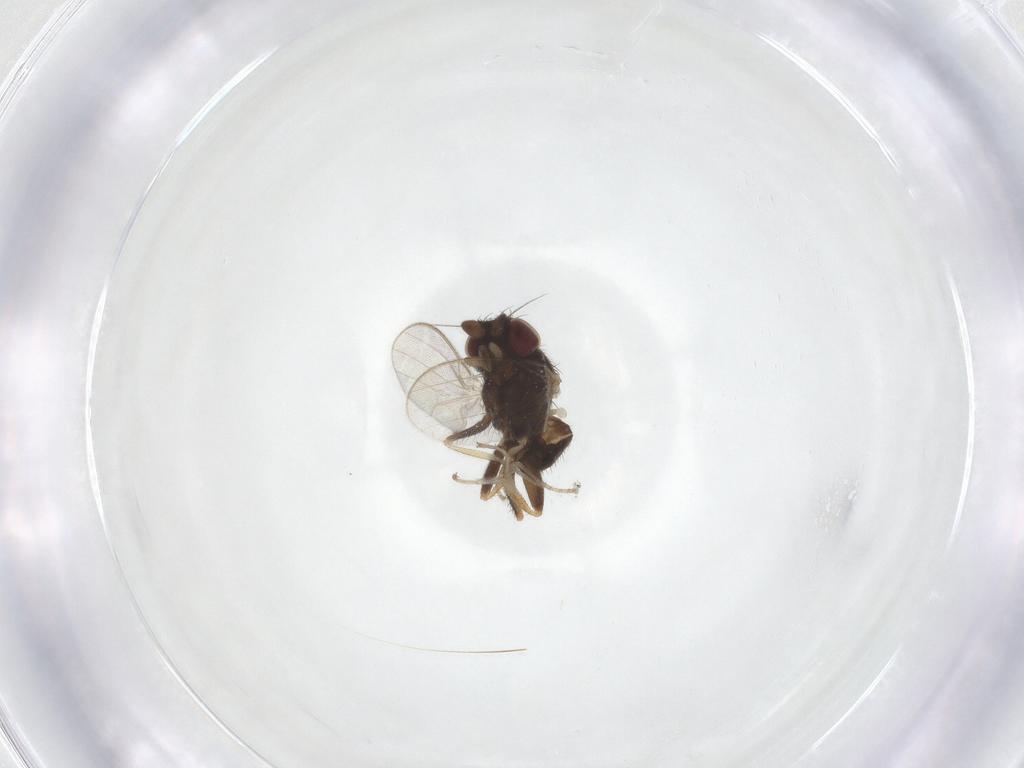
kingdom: Animalia
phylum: Arthropoda
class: Insecta
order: Diptera
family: Milichiidae
